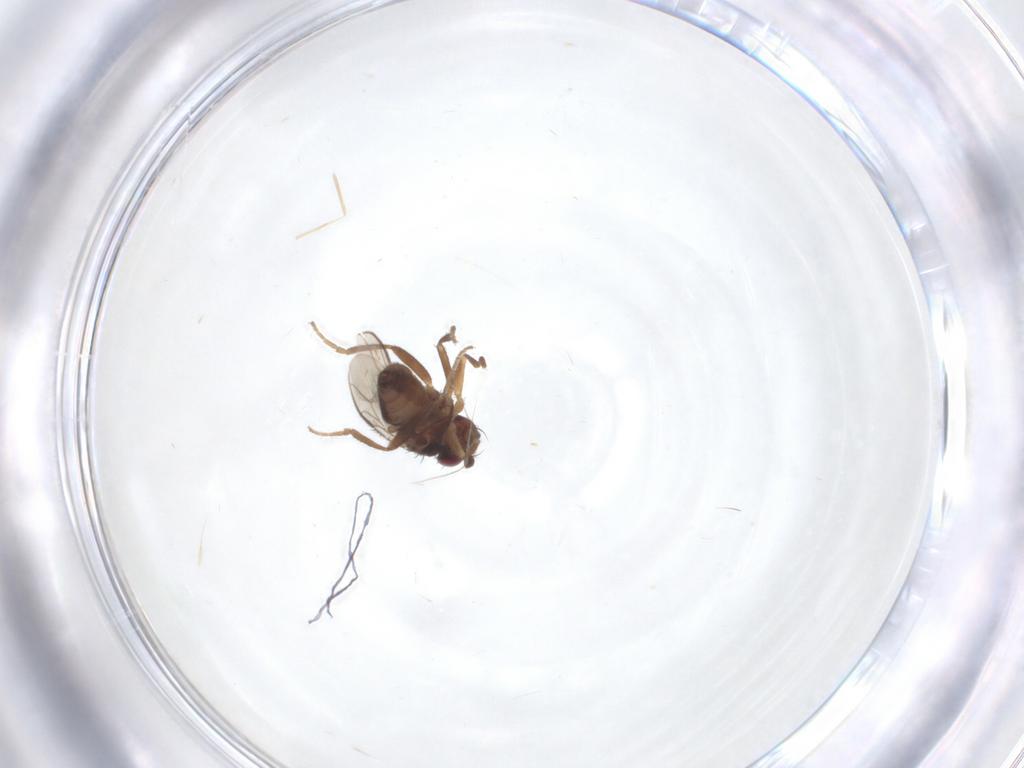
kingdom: Animalia
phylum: Arthropoda
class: Insecta
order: Diptera
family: Sphaeroceridae
